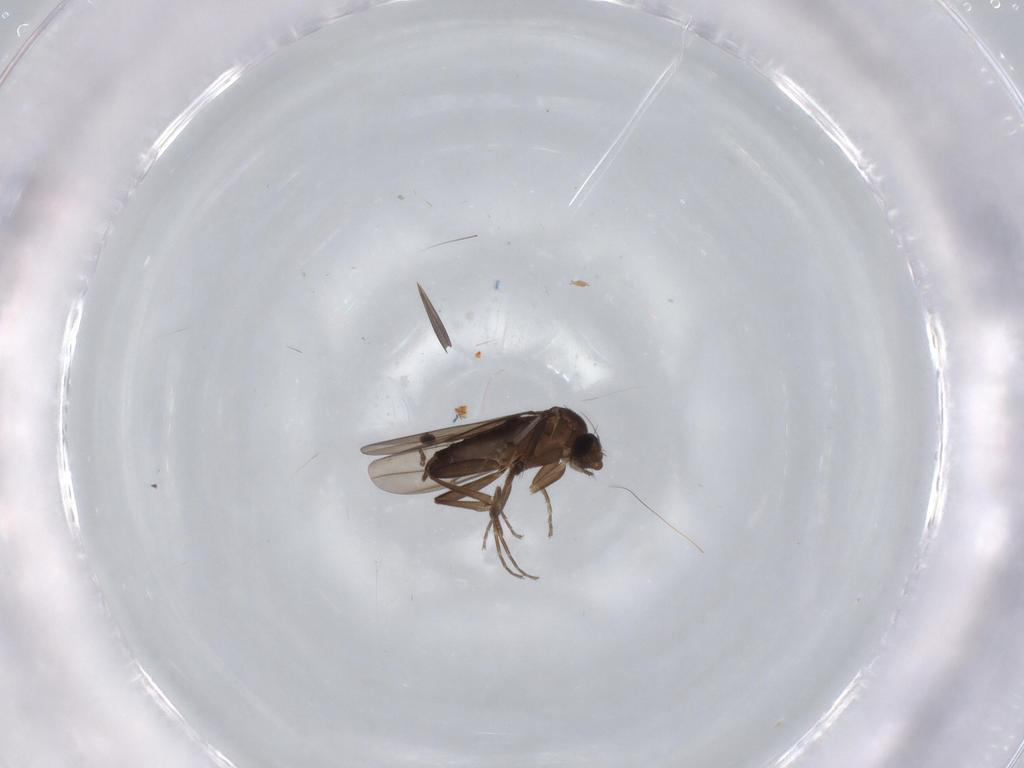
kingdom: Animalia
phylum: Arthropoda
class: Insecta
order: Diptera
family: Phoridae
